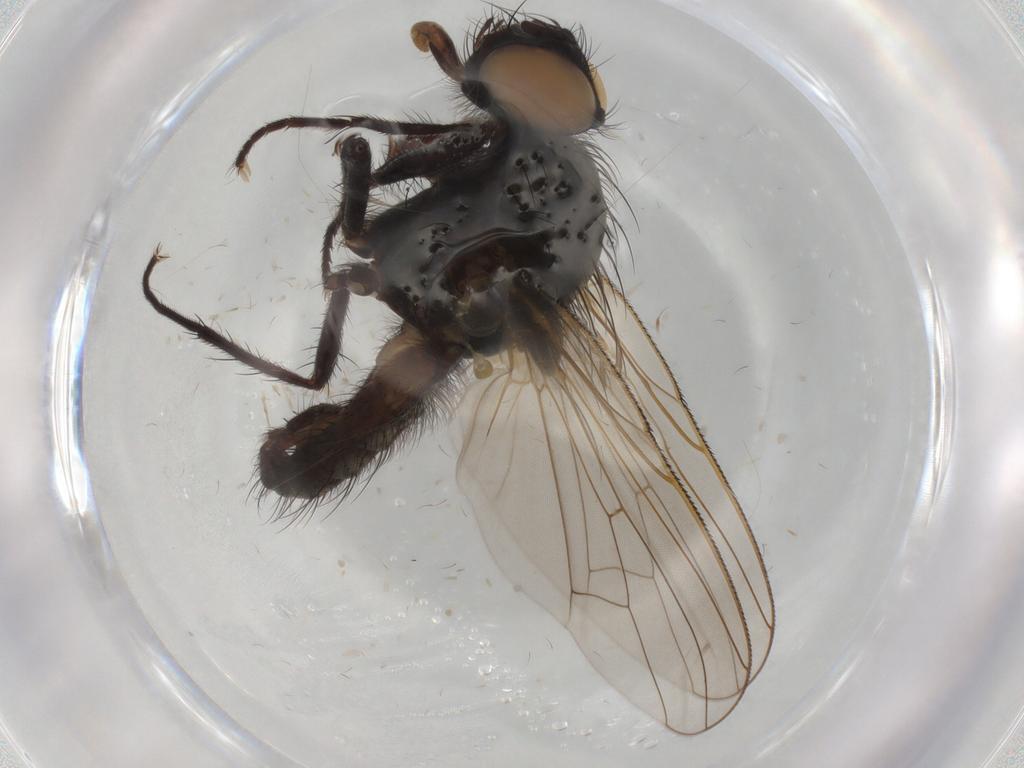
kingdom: Animalia
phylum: Arthropoda
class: Insecta
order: Diptera
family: Anthomyiidae
